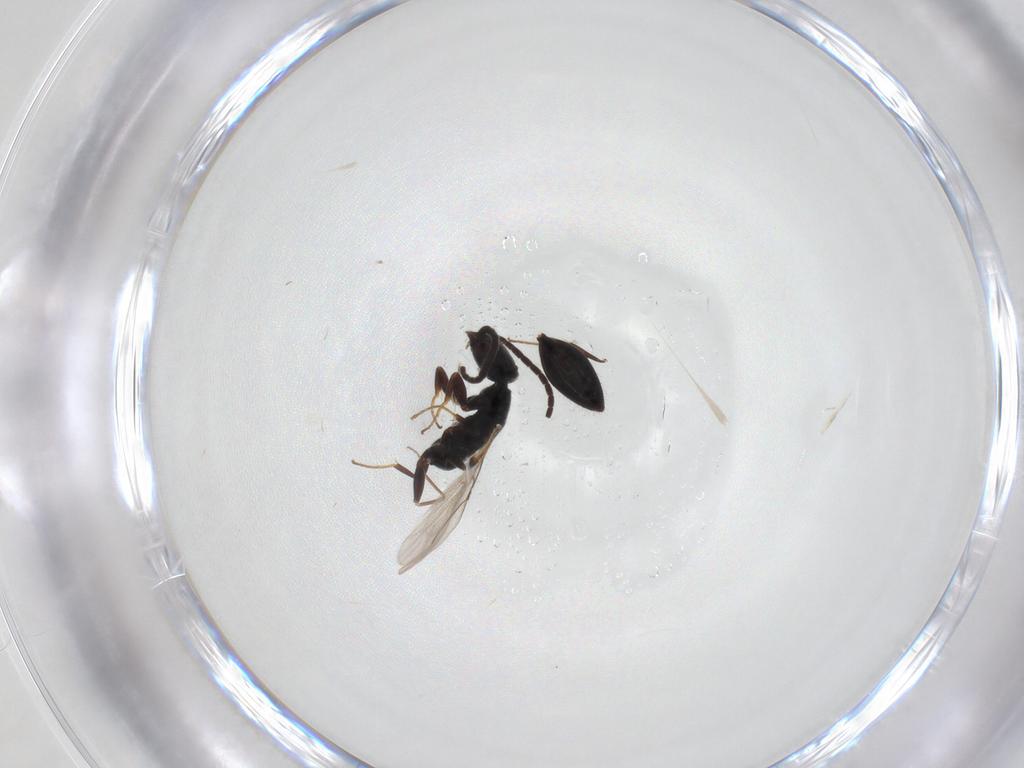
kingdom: Animalia
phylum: Arthropoda
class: Insecta
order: Hymenoptera
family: Bethylidae
